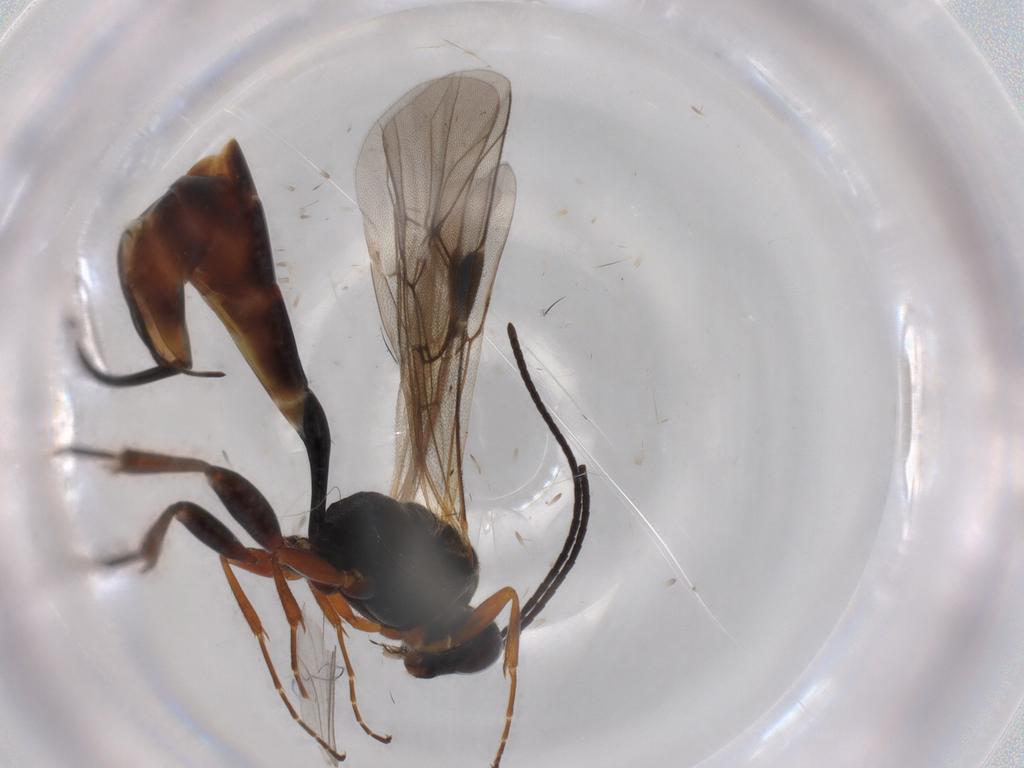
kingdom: Animalia
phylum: Arthropoda
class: Insecta
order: Hymenoptera
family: Ichneumonidae
